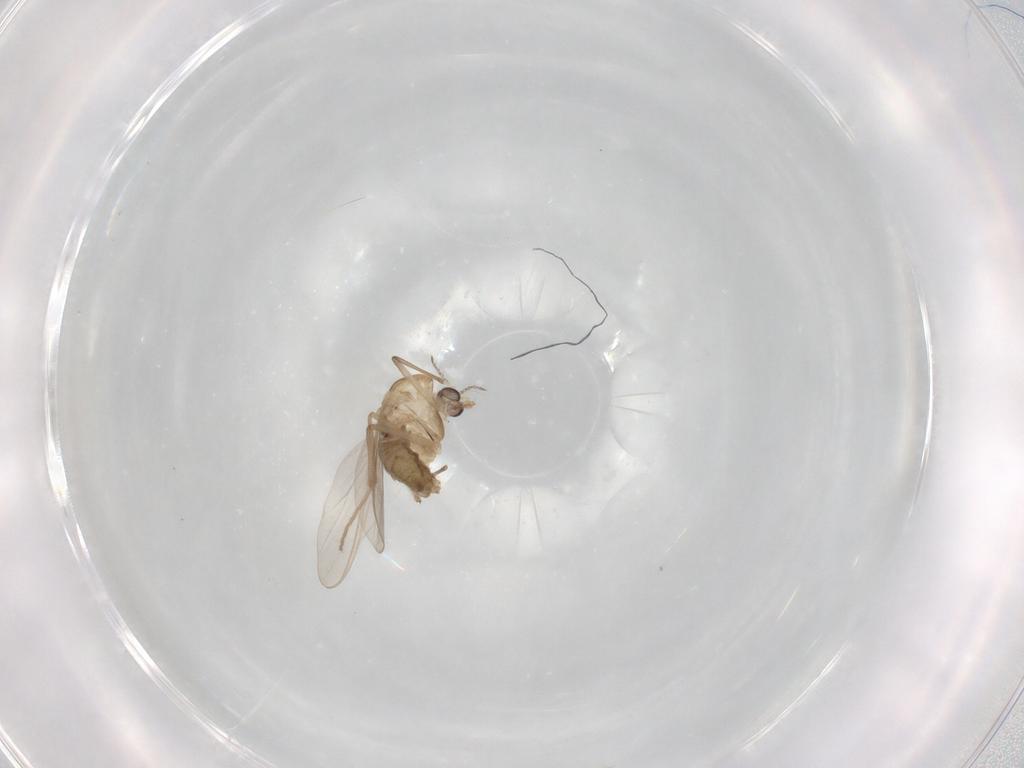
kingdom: Animalia
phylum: Arthropoda
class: Insecta
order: Diptera
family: Chironomidae
